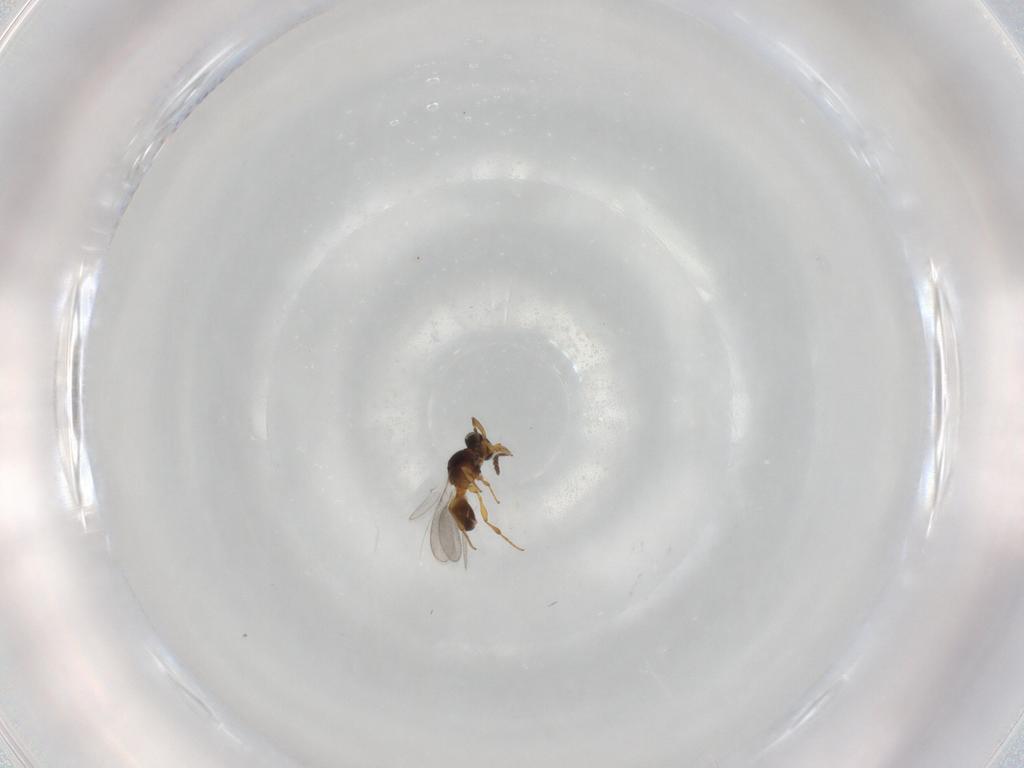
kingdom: Animalia
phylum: Arthropoda
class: Insecta
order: Hymenoptera
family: Platygastridae
